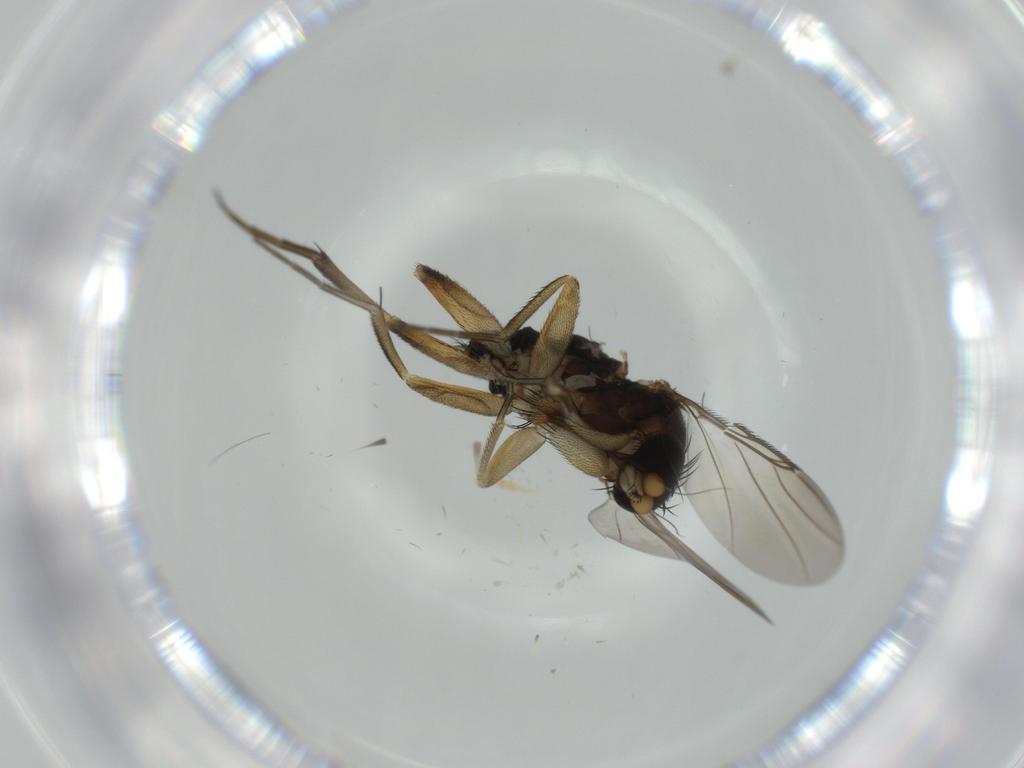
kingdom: Animalia
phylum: Arthropoda
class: Insecta
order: Diptera
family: Phoridae
